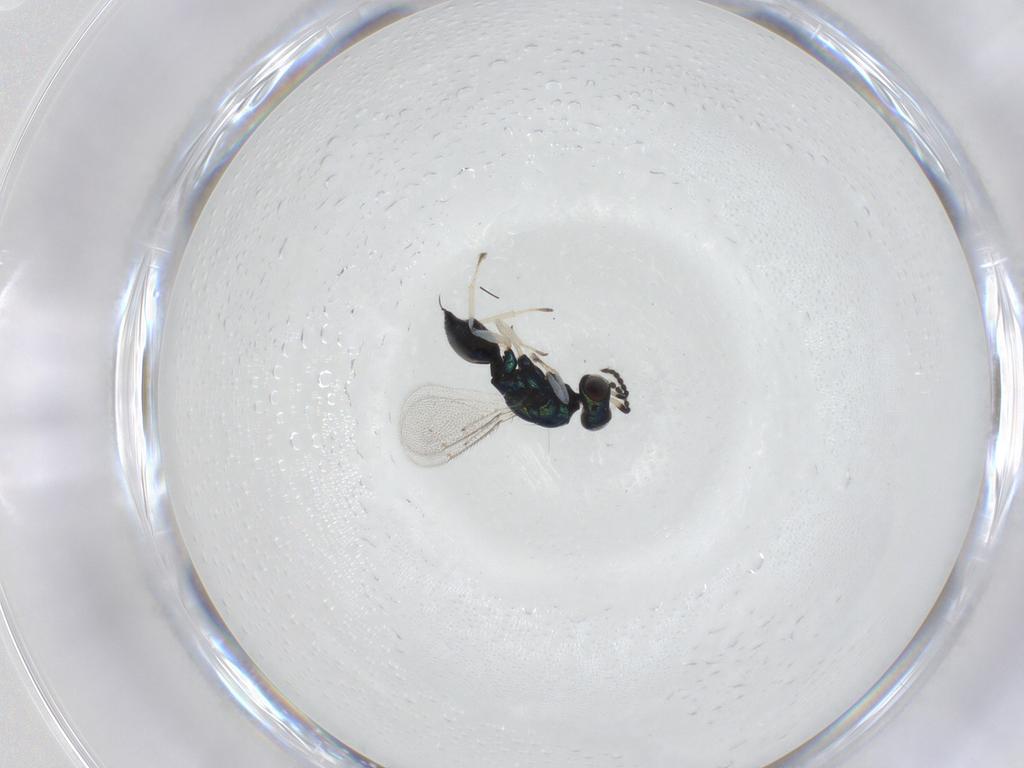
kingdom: Animalia
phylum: Arthropoda
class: Insecta
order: Hymenoptera
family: Eulophidae
